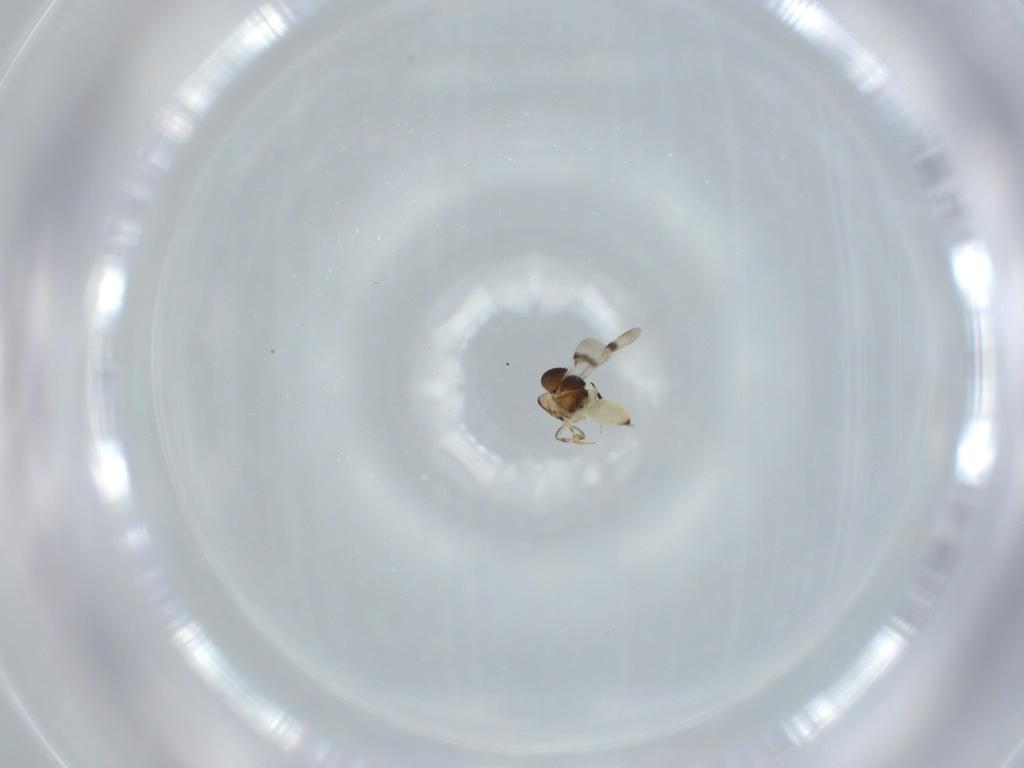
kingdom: Animalia
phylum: Arthropoda
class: Insecta
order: Hymenoptera
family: Scelionidae
